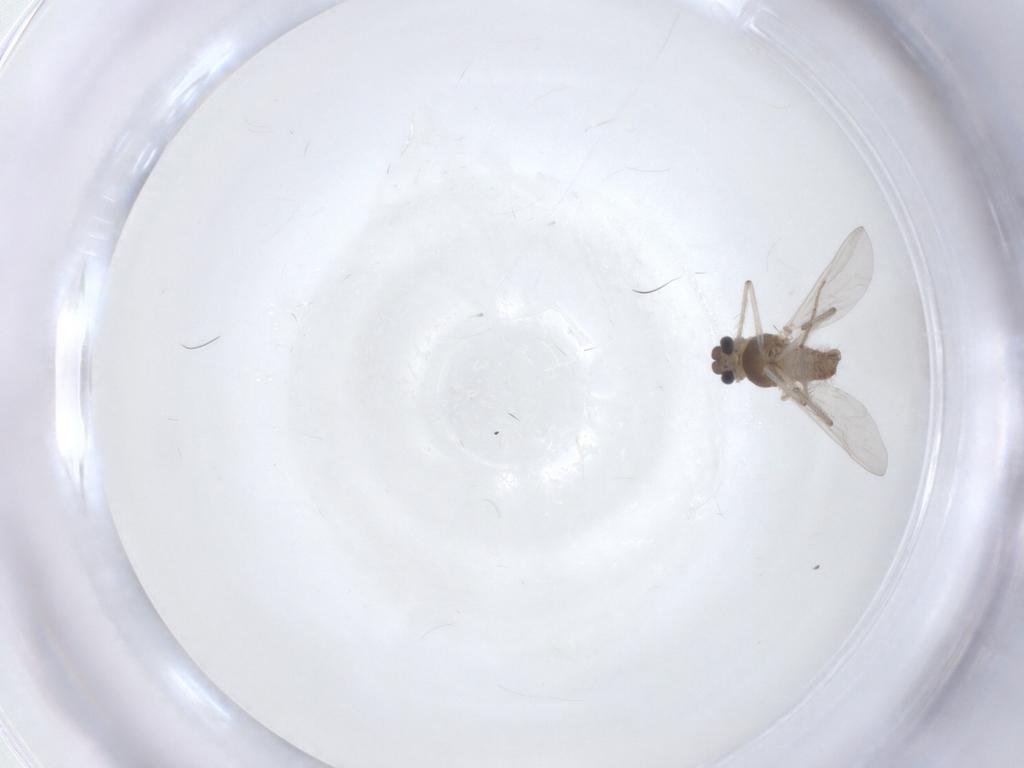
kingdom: Animalia
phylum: Arthropoda
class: Insecta
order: Diptera
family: Chironomidae
